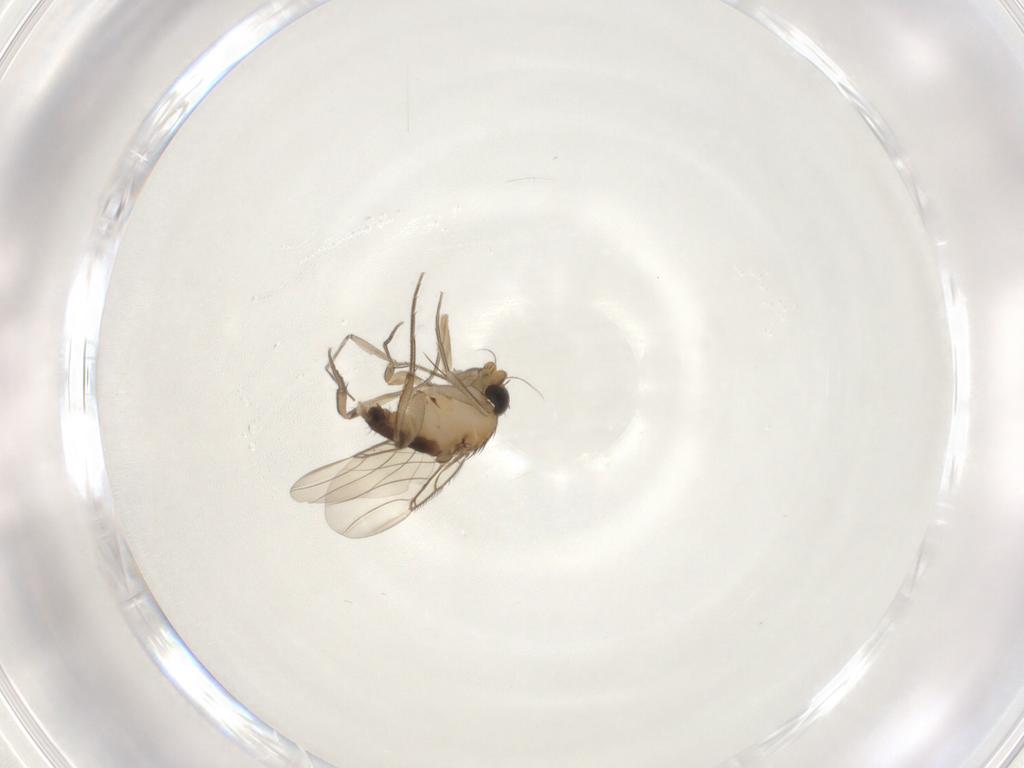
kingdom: Animalia
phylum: Arthropoda
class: Insecta
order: Diptera
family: Phoridae
